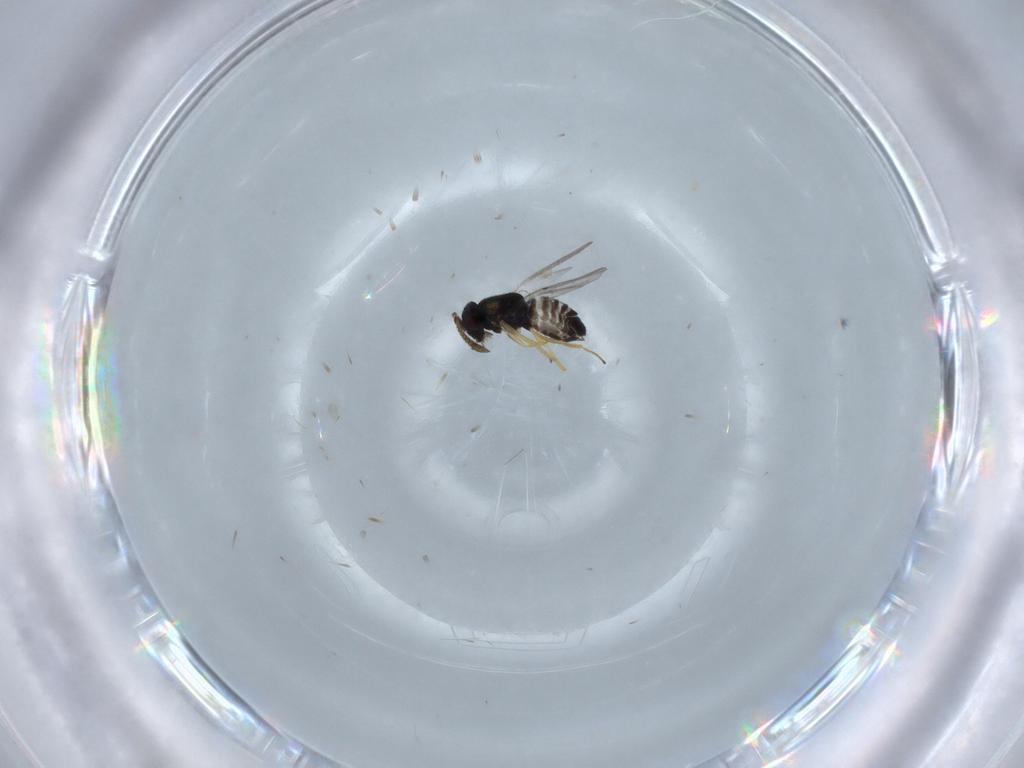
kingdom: Animalia
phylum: Arthropoda
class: Insecta
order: Hymenoptera
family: Encyrtidae
